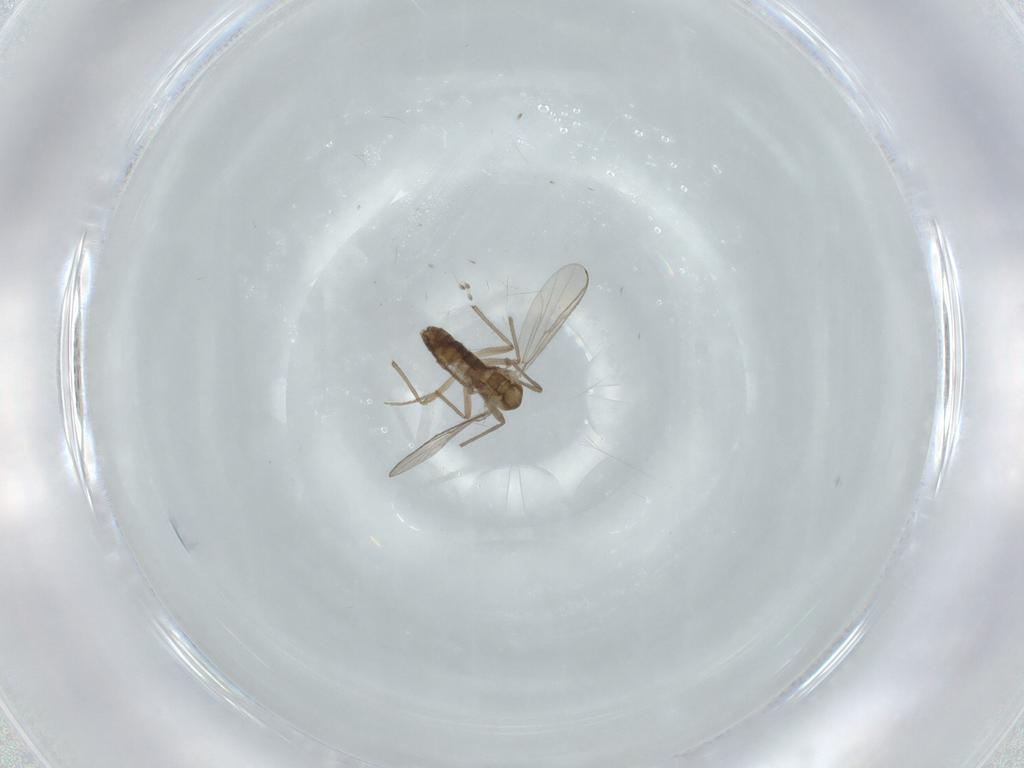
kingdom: Animalia
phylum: Arthropoda
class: Insecta
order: Diptera
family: Chironomidae
